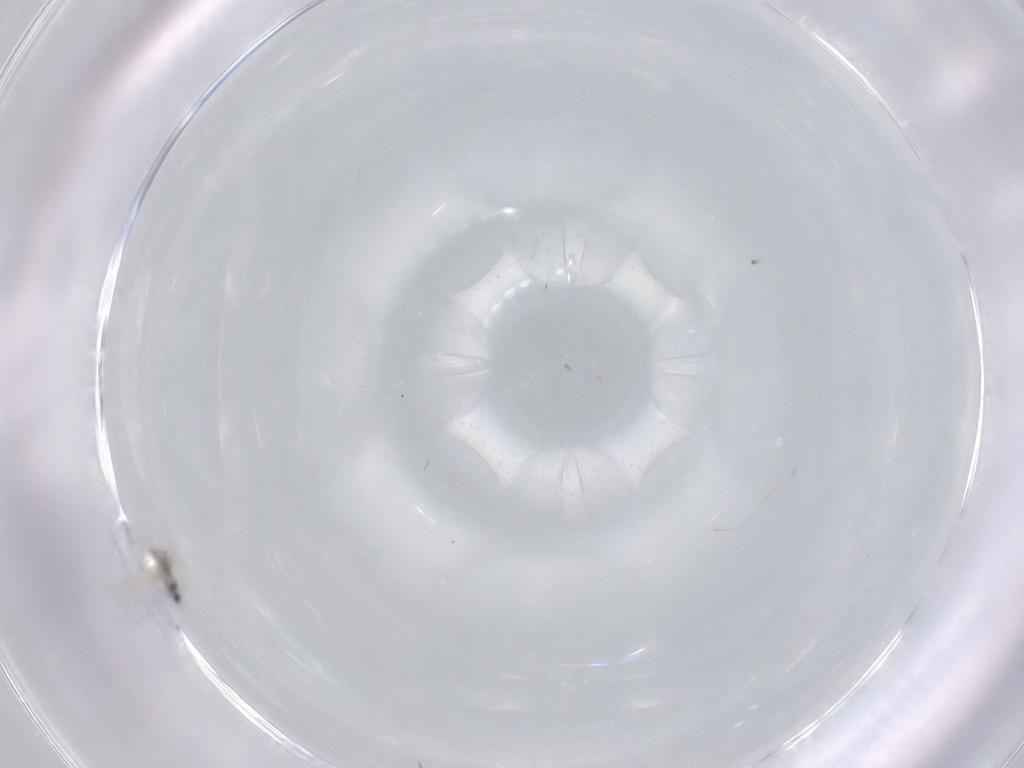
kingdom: Animalia
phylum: Arthropoda
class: Insecta
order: Diptera
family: Cecidomyiidae
